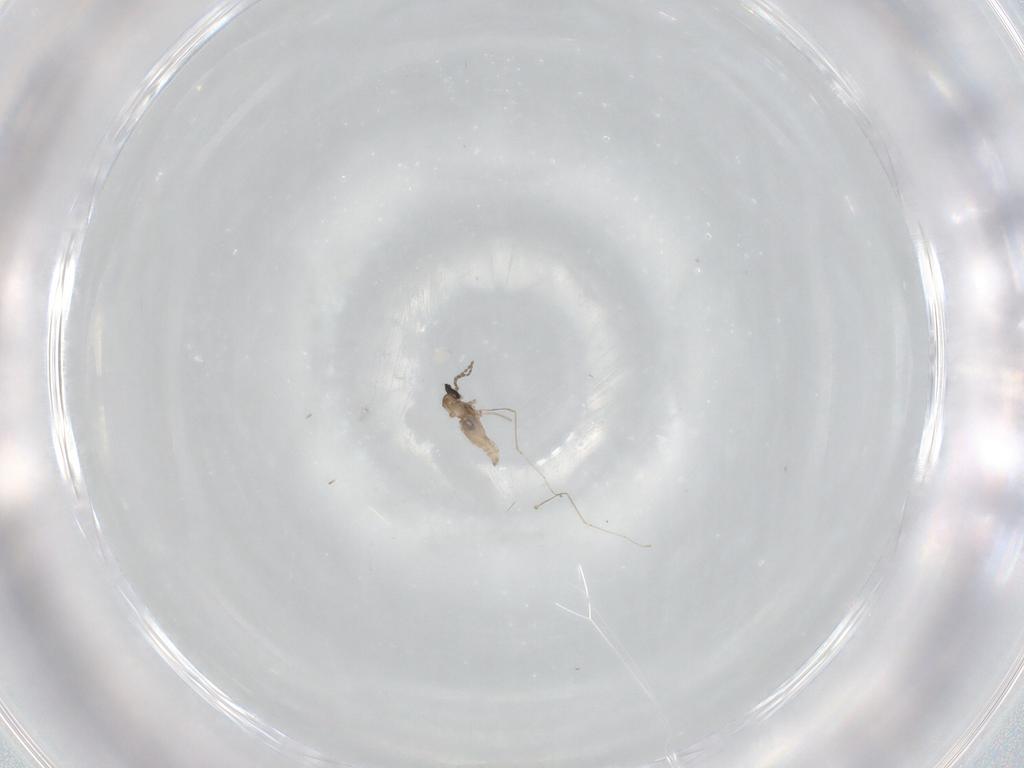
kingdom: Animalia
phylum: Arthropoda
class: Insecta
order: Diptera
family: Cecidomyiidae
